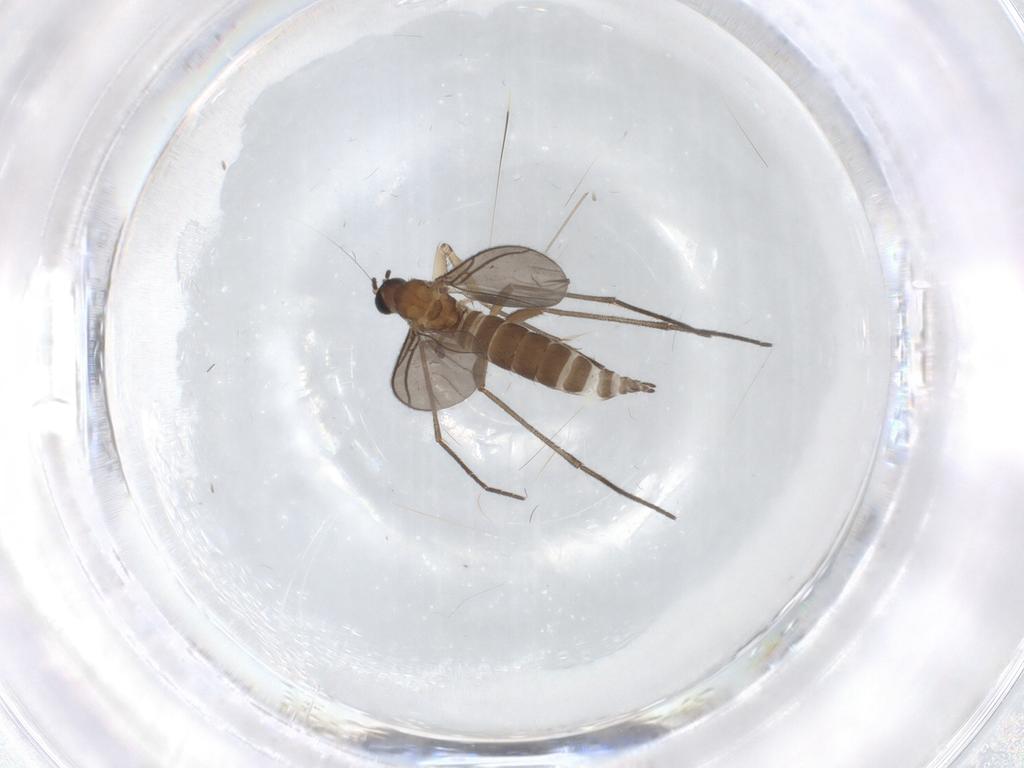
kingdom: Animalia
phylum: Arthropoda
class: Insecta
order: Diptera
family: Sciaridae
